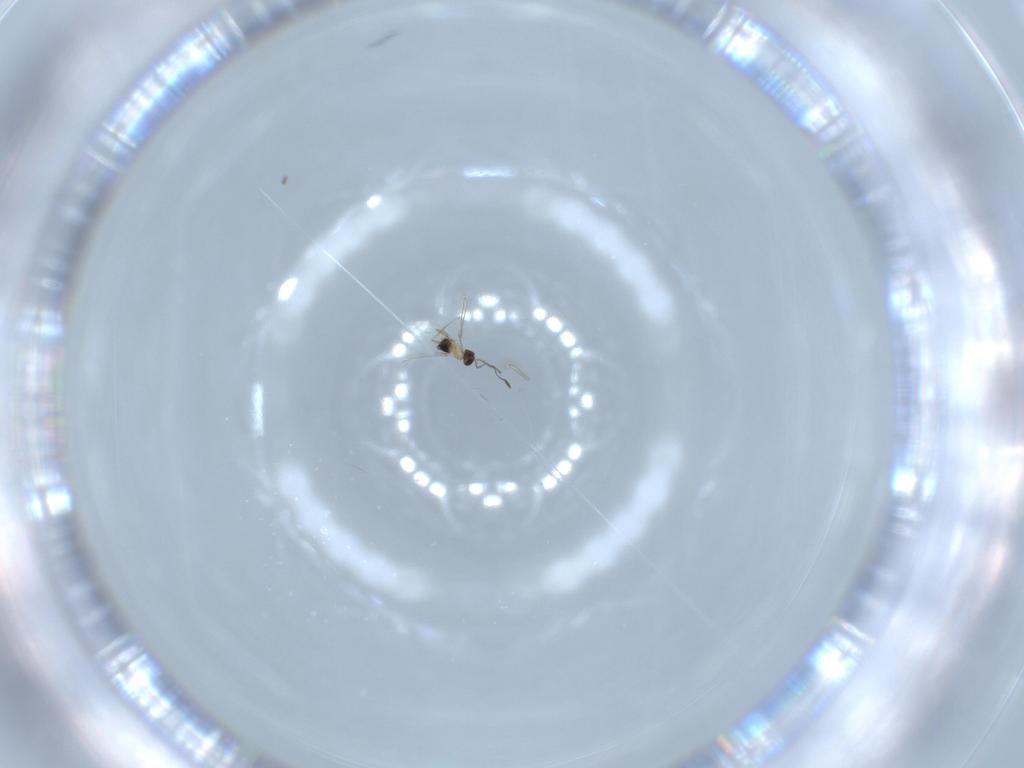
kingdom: Animalia
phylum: Arthropoda
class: Insecta
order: Hymenoptera
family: Mymaridae
